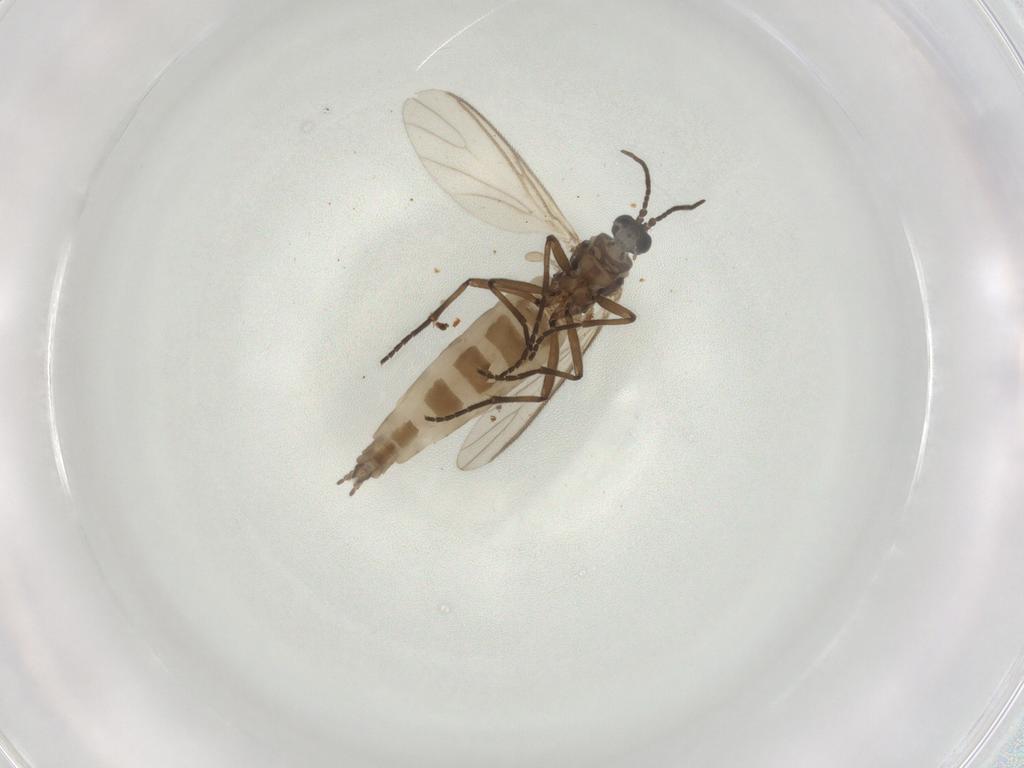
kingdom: Animalia
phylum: Arthropoda
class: Insecta
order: Diptera
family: Sciaridae
